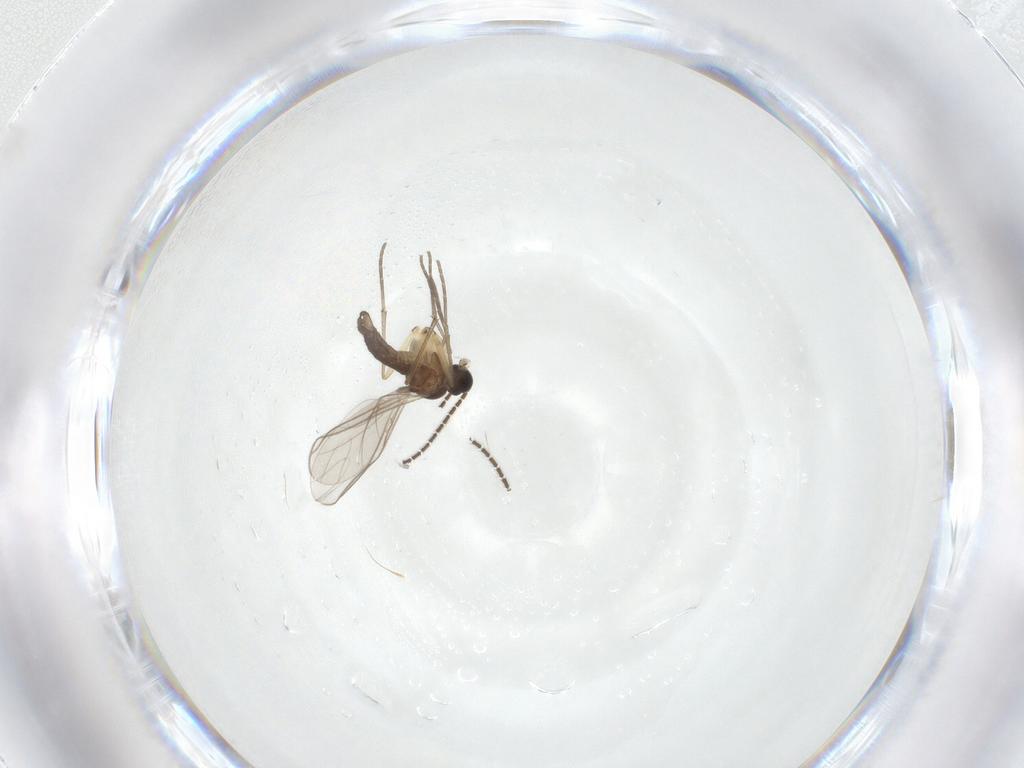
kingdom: Animalia
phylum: Arthropoda
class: Insecta
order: Diptera
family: Sciaridae
